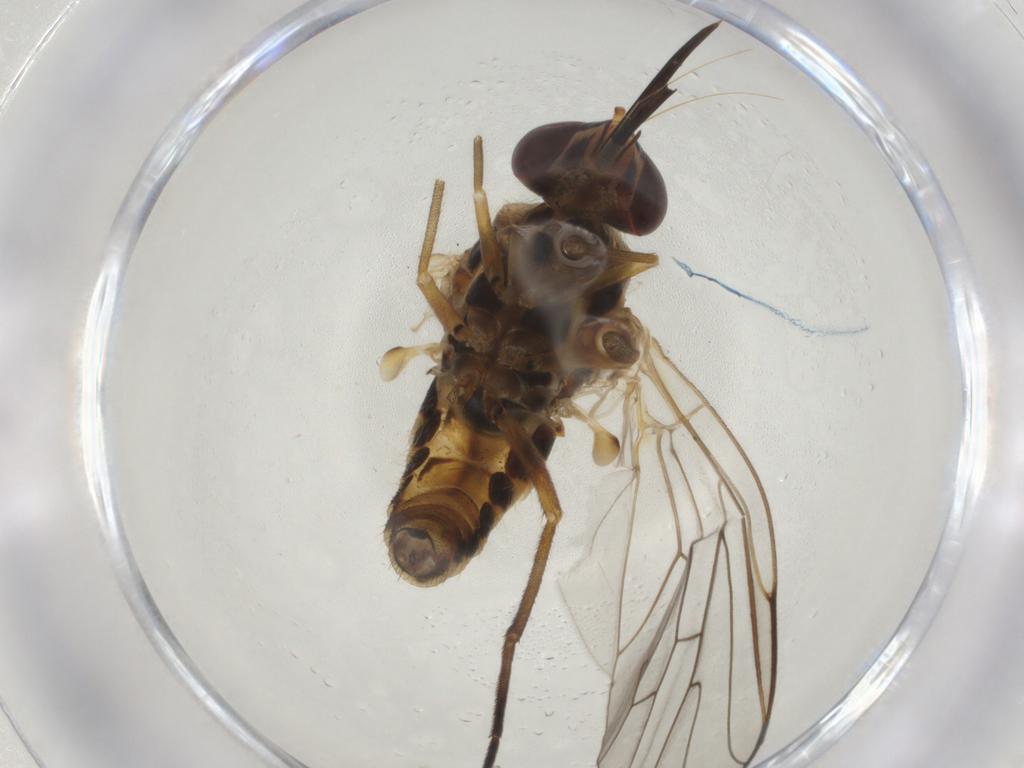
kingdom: Animalia
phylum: Arthropoda
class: Insecta
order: Diptera
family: Bombyliidae
